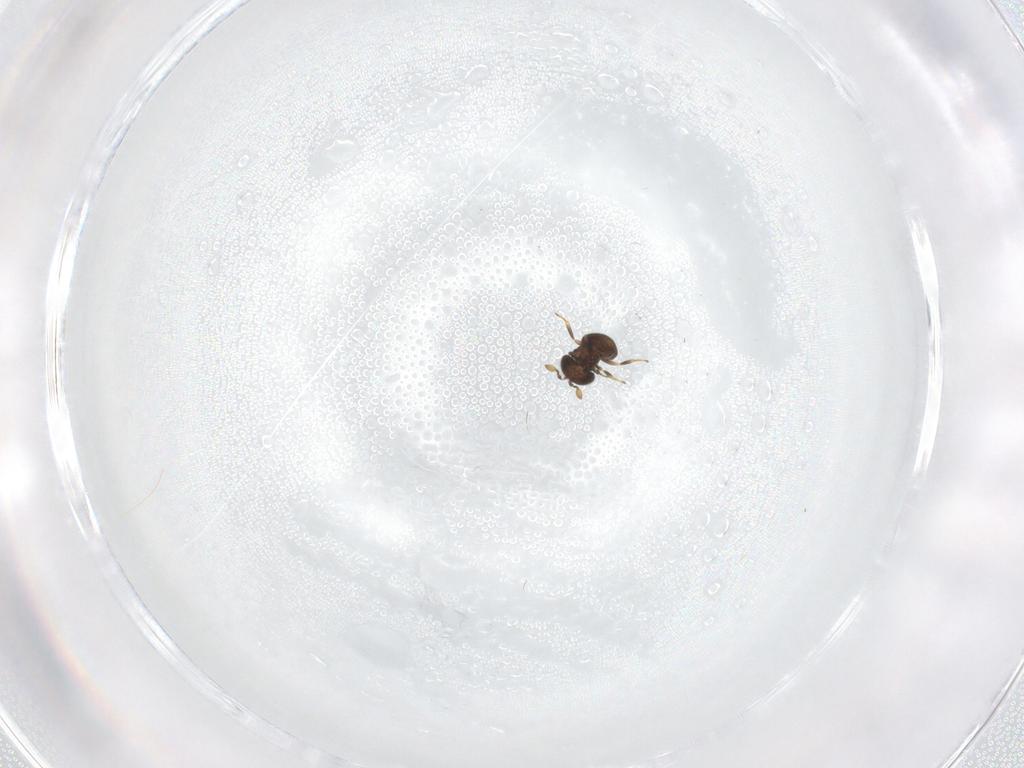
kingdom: Animalia
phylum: Arthropoda
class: Insecta
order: Hymenoptera
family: Scelionidae
